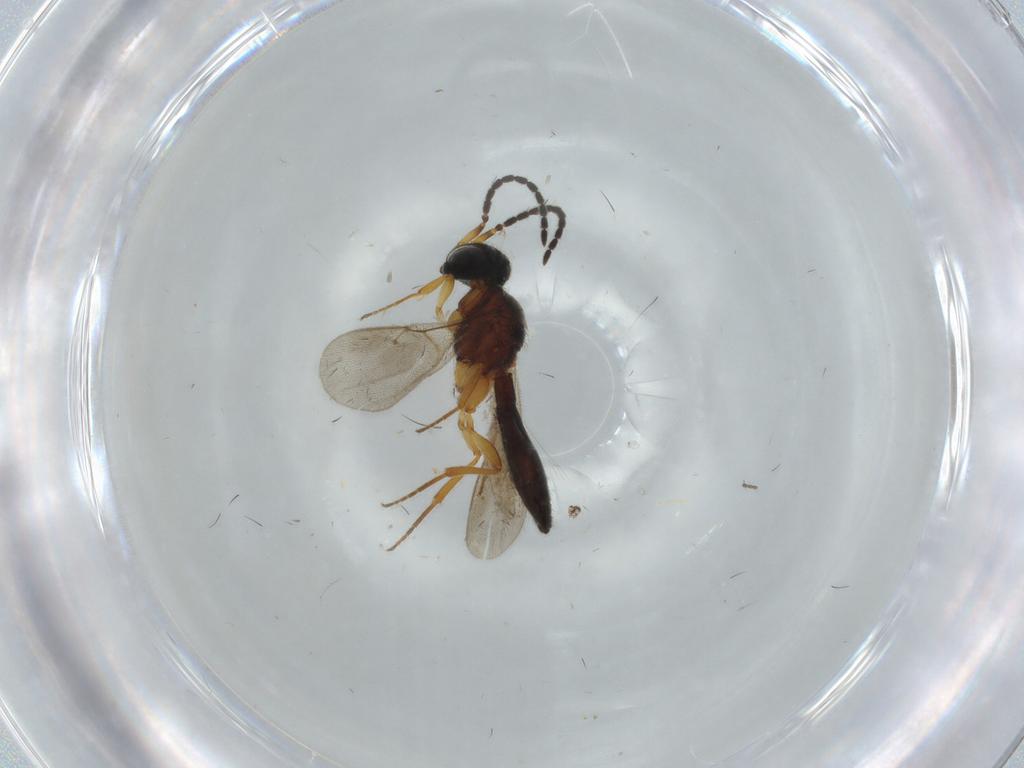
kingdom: Animalia
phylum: Arthropoda
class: Insecta
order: Hymenoptera
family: Scelionidae
